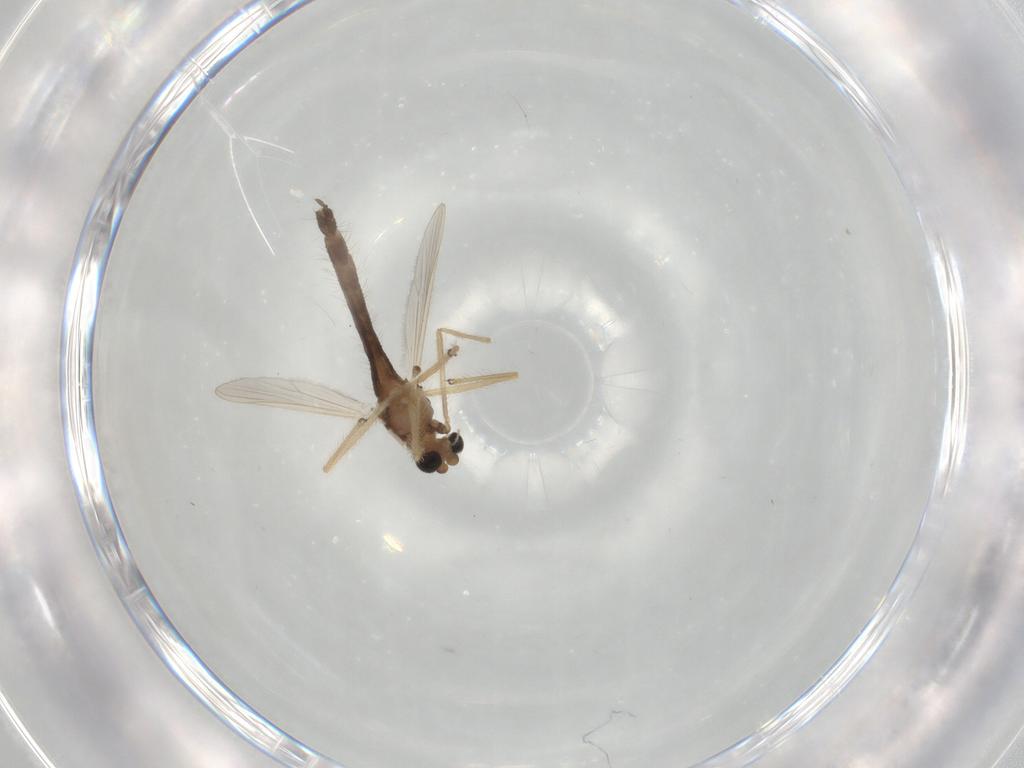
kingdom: Animalia
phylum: Arthropoda
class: Insecta
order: Diptera
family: Chironomidae
